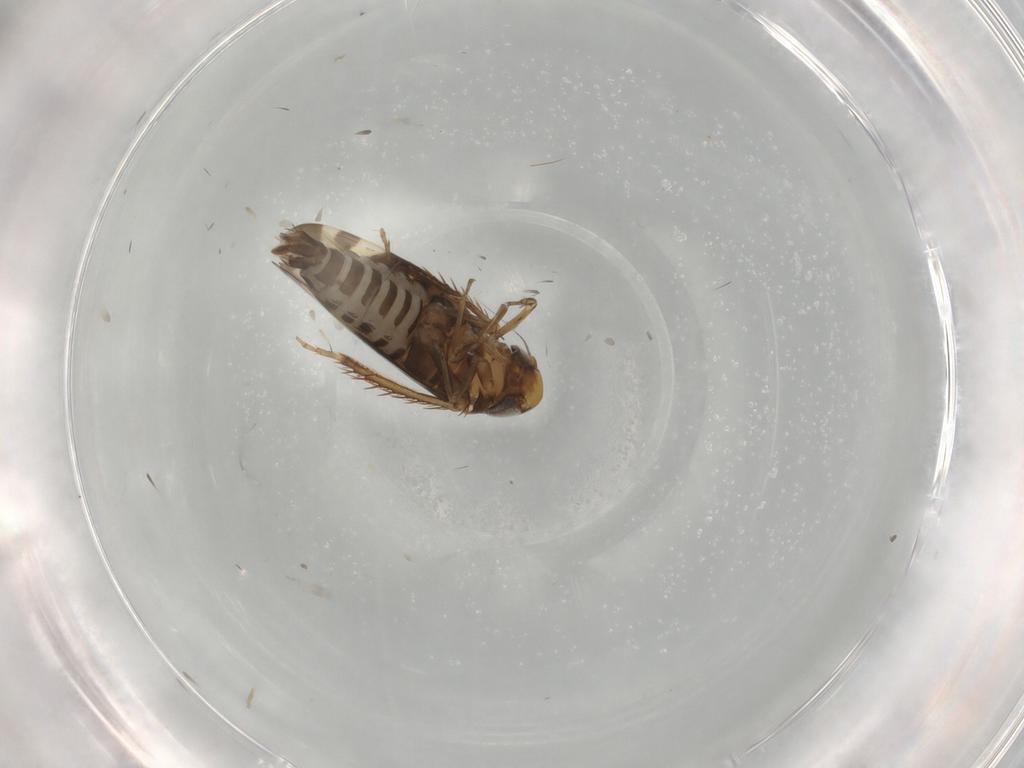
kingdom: Animalia
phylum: Arthropoda
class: Insecta
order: Hemiptera
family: Cicadellidae
